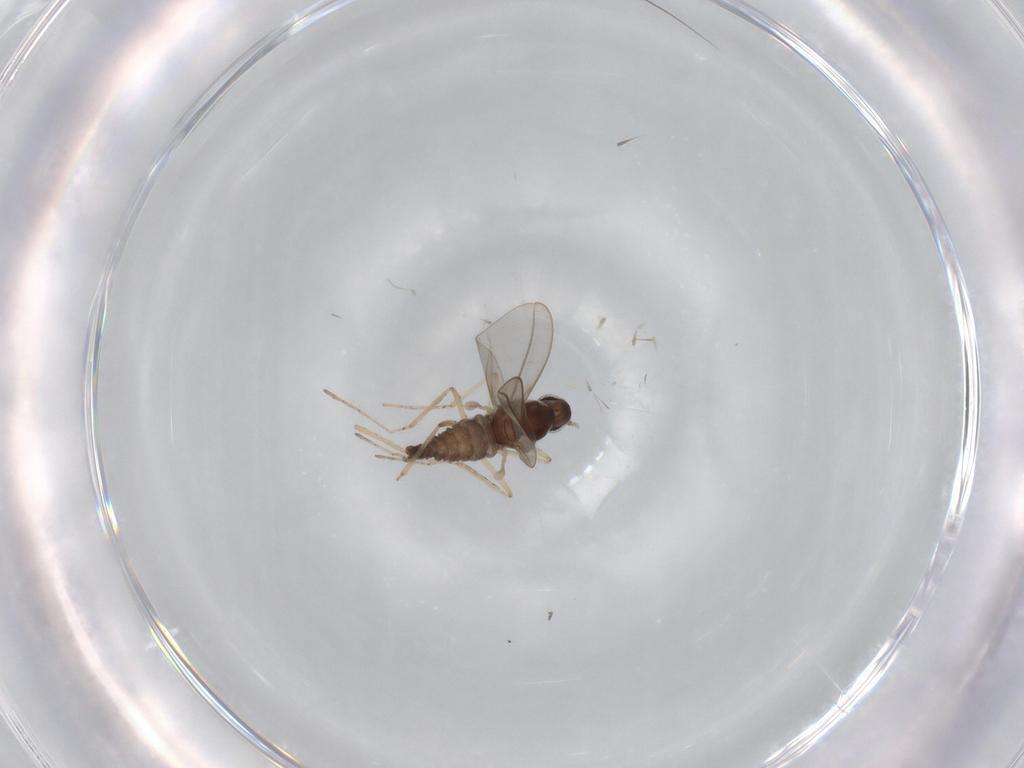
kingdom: Animalia
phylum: Arthropoda
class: Insecta
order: Diptera
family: Cecidomyiidae
